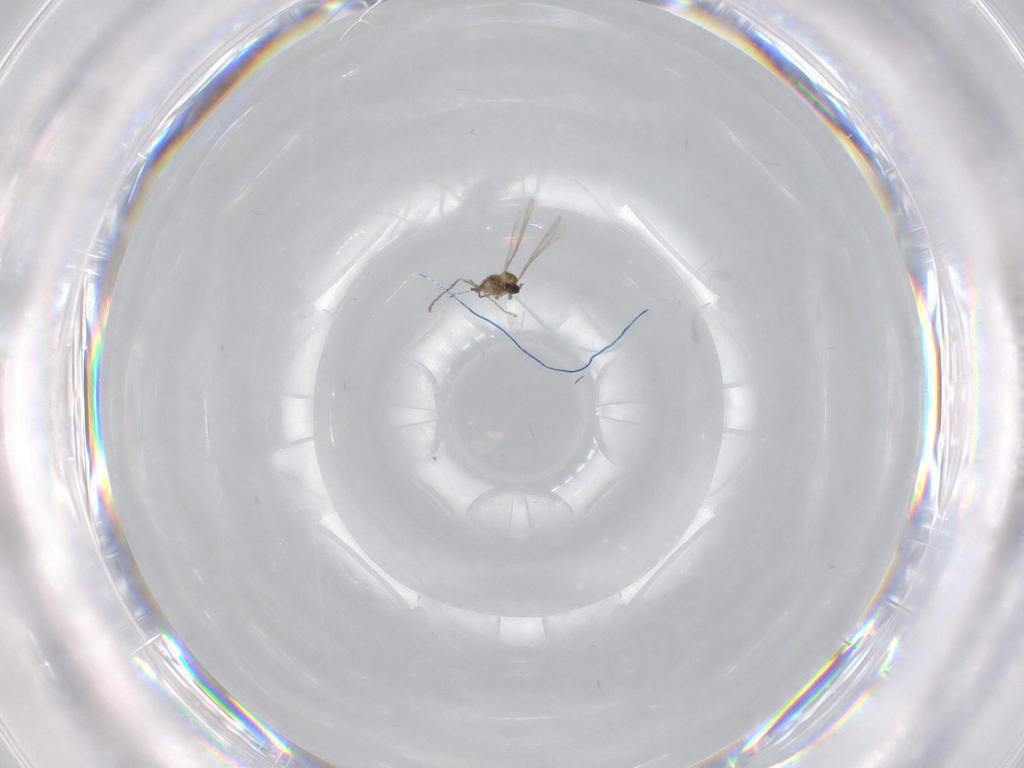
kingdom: Animalia
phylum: Arthropoda
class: Insecta
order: Diptera
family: Cecidomyiidae
